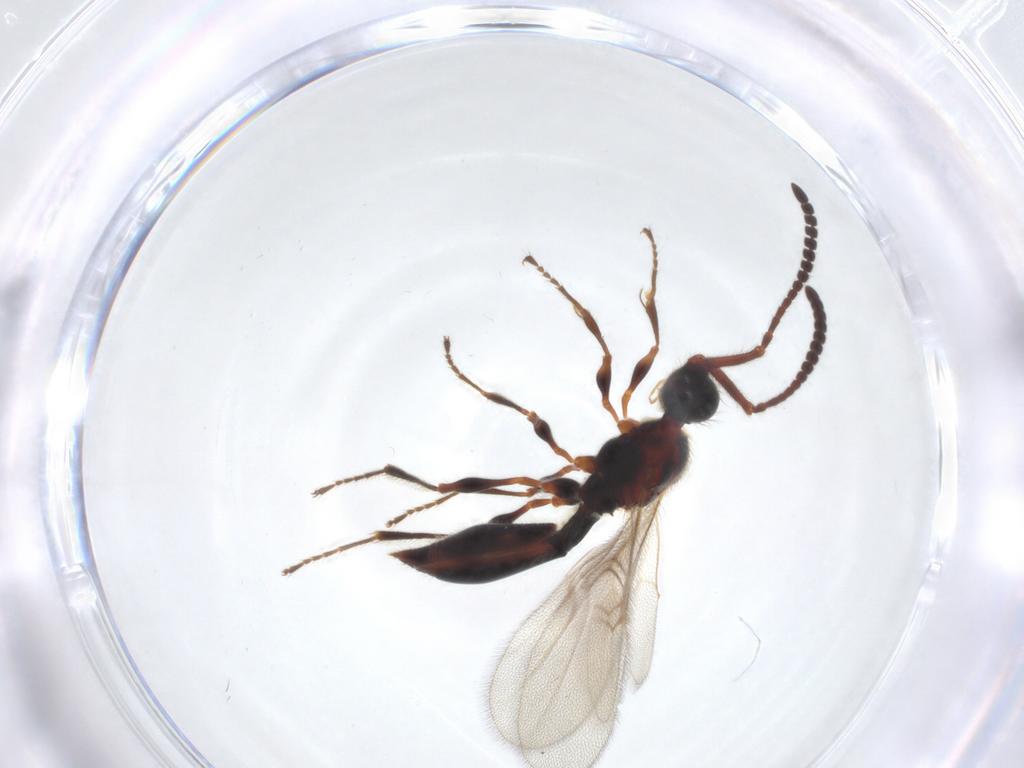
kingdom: Animalia
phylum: Arthropoda
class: Insecta
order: Hymenoptera
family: Diapriidae
